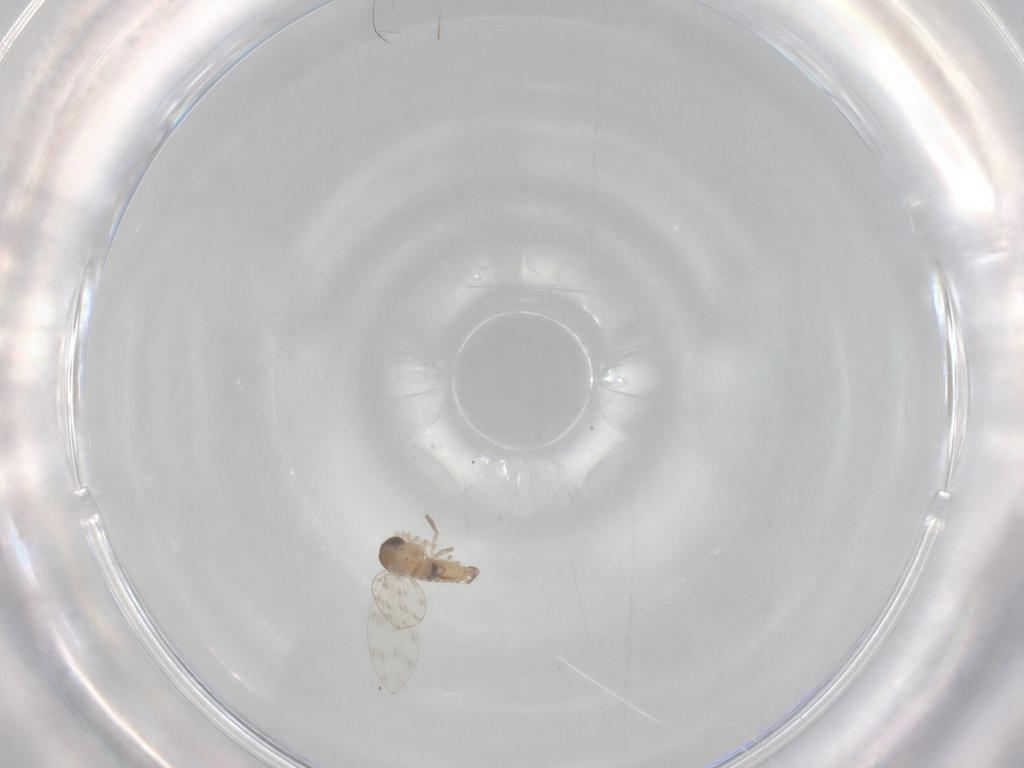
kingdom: Animalia
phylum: Arthropoda
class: Insecta
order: Diptera
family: Psychodidae
